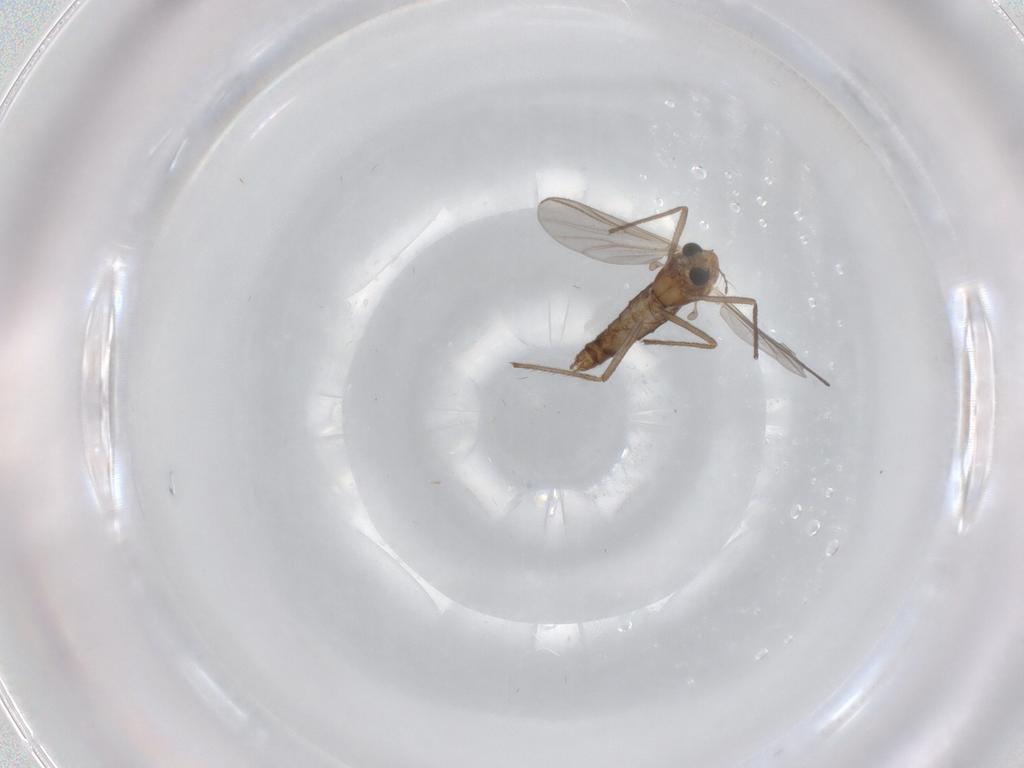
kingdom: Animalia
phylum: Arthropoda
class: Insecta
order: Diptera
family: Chironomidae
